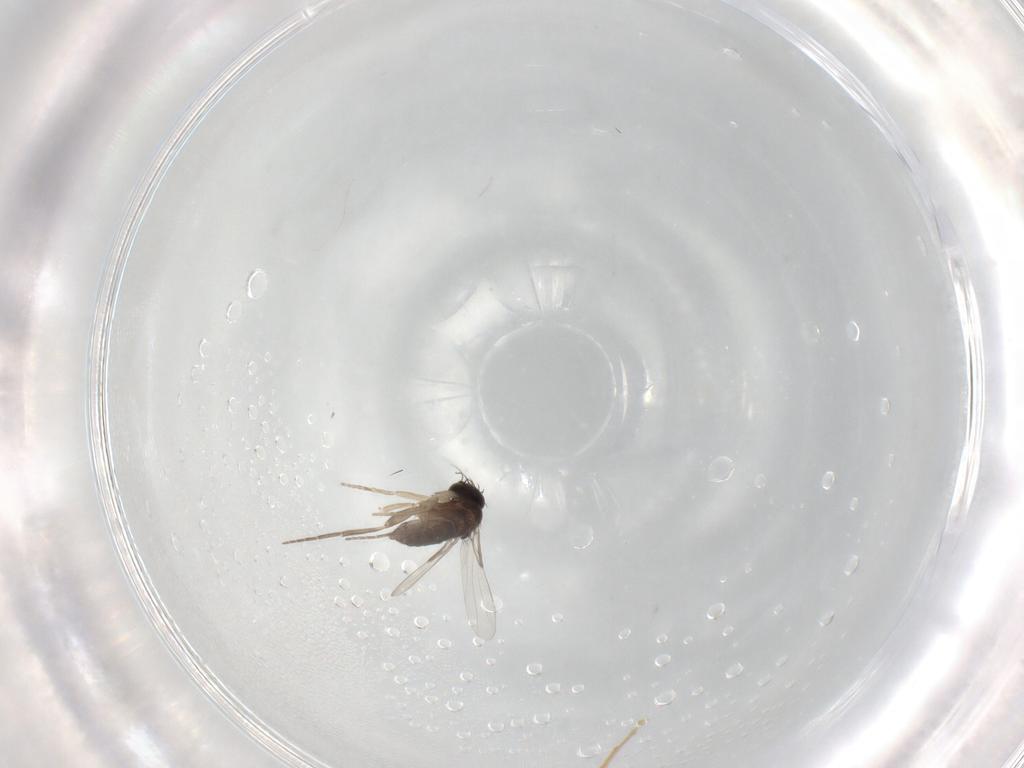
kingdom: Animalia
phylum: Arthropoda
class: Insecta
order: Diptera
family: Phoridae
